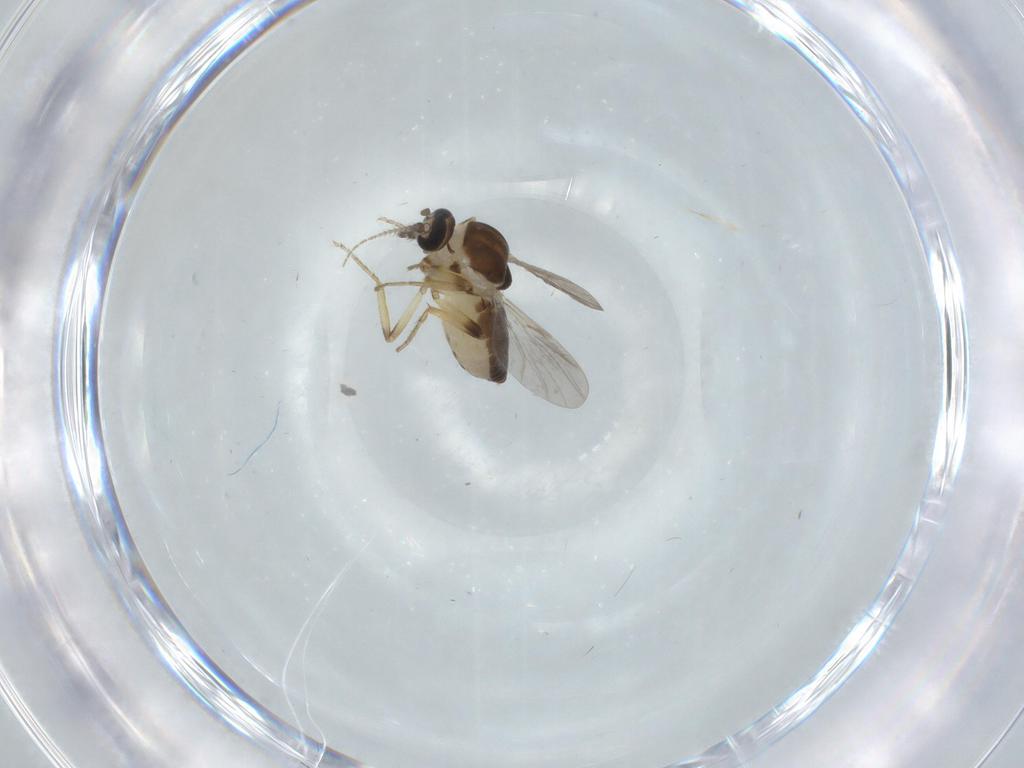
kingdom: Animalia
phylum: Arthropoda
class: Insecta
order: Diptera
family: Ceratopogonidae
